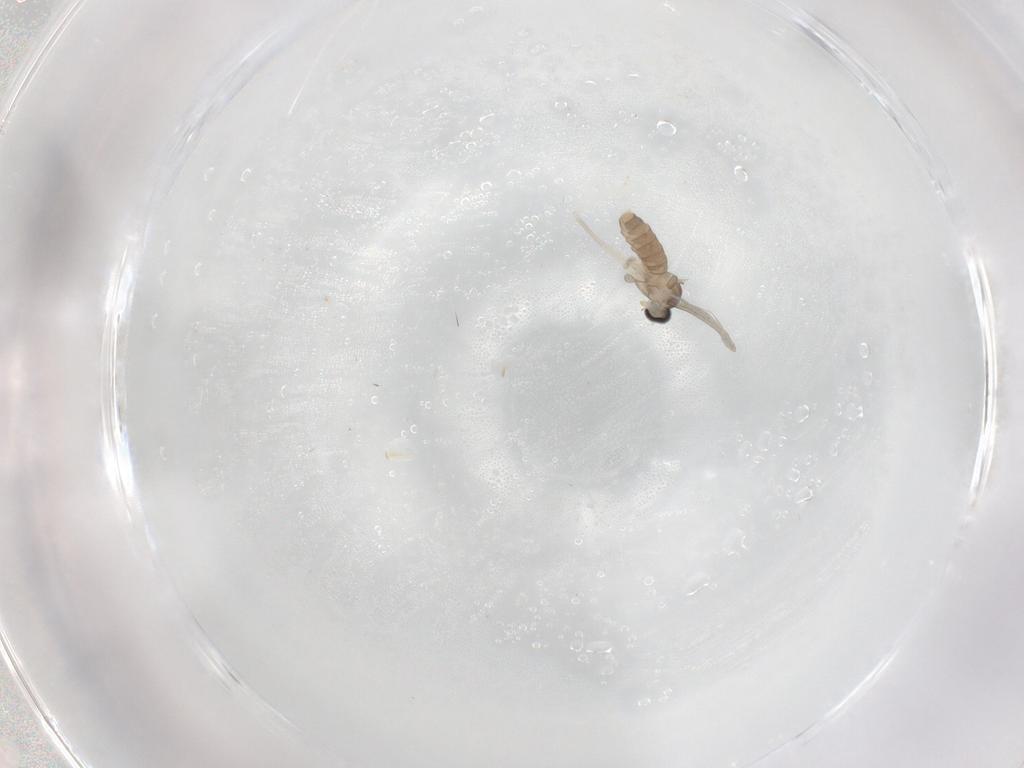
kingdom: Animalia
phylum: Arthropoda
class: Insecta
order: Diptera
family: Cecidomyiidae
